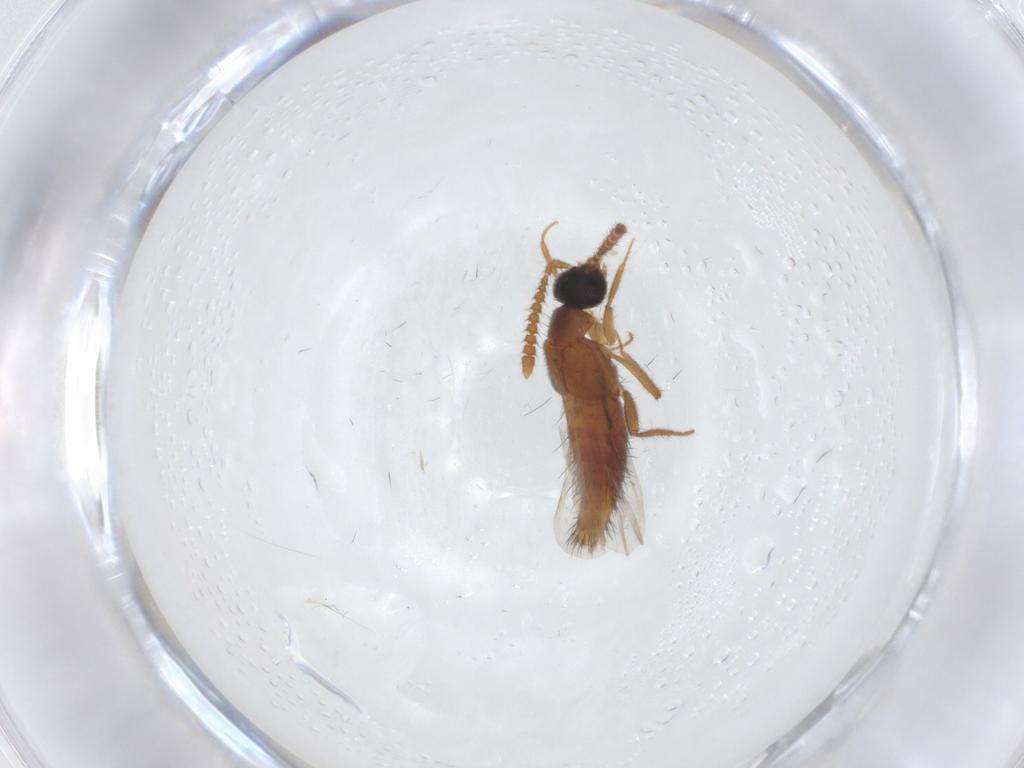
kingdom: Animalia
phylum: Arthropoda
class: Insecta
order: Coleoptera
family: Staphylinidae
